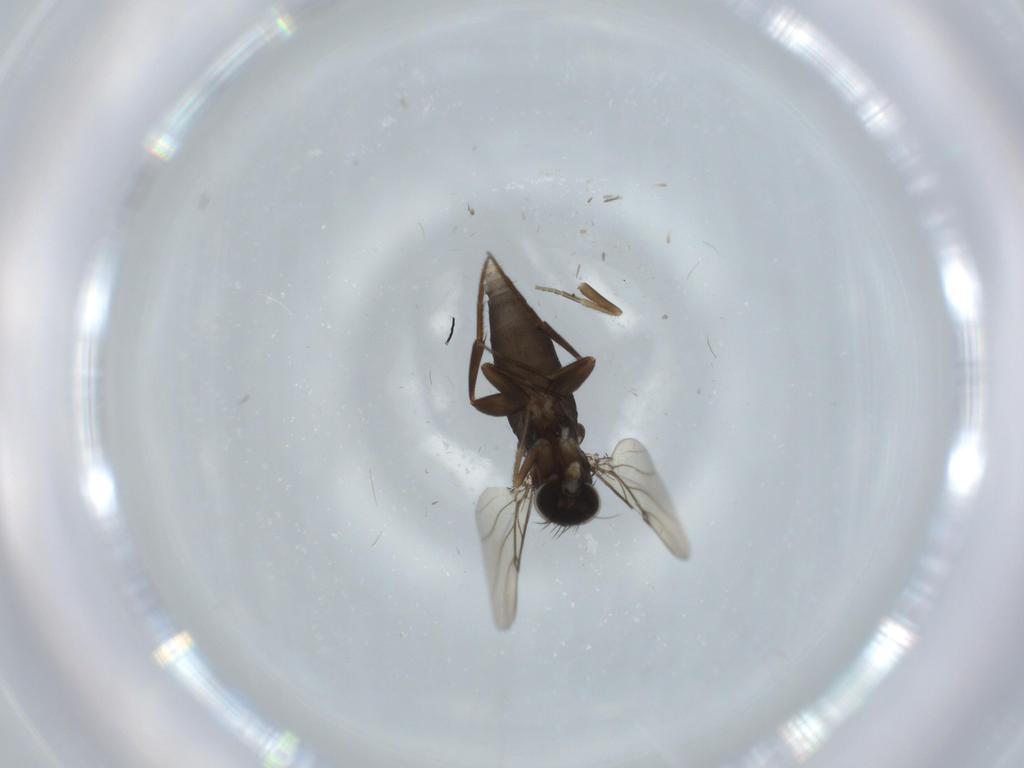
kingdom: Animalia
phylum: Arthropoda
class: Insecta
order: Diptera
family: Phoridae
